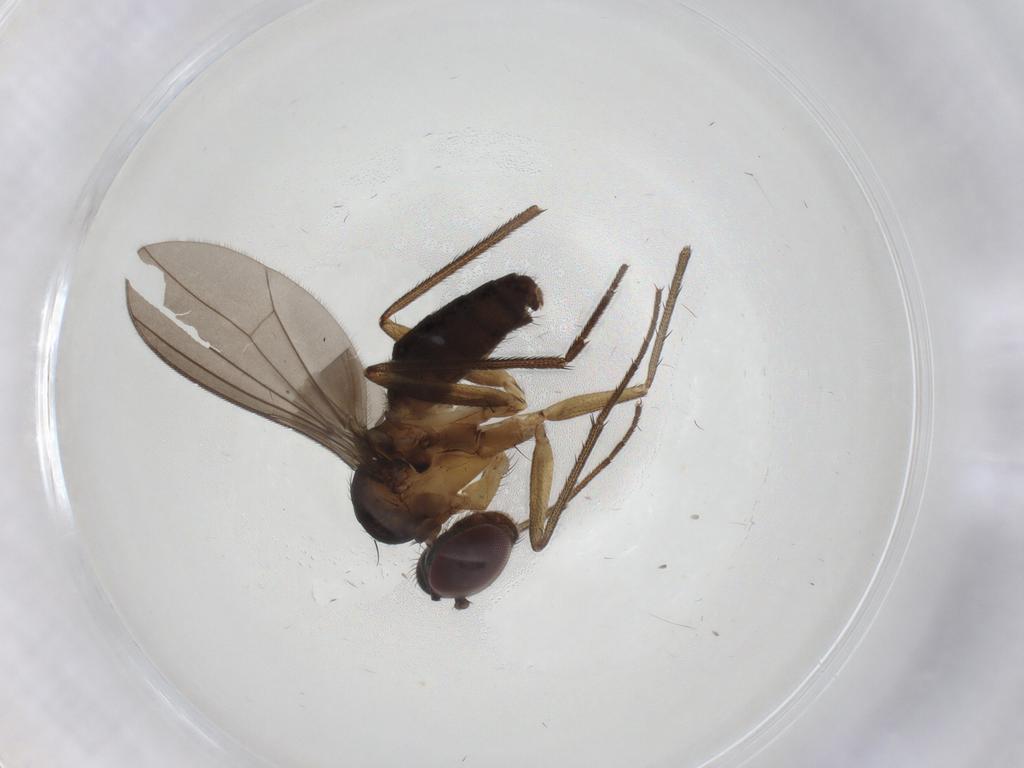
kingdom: Animalia
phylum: Arthropoda
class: Insecta
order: Diptera
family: Dolichopodidae
